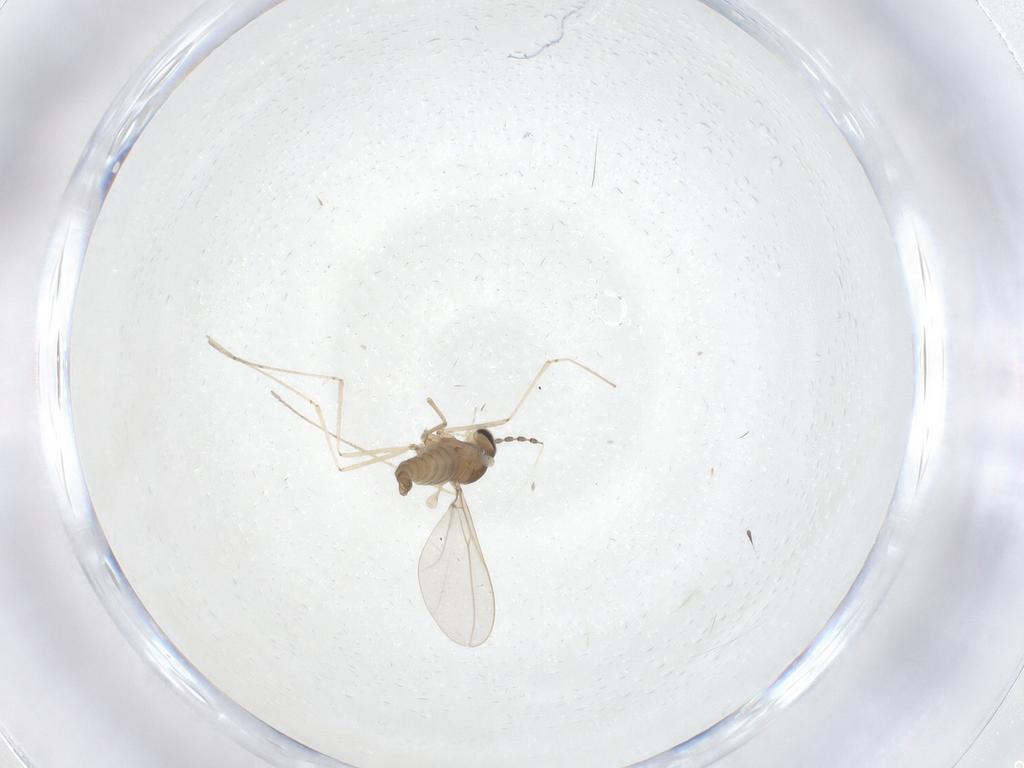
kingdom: Animalia
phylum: Arthropoda
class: Insecta
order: Diptera
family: Cecidomyiidae
